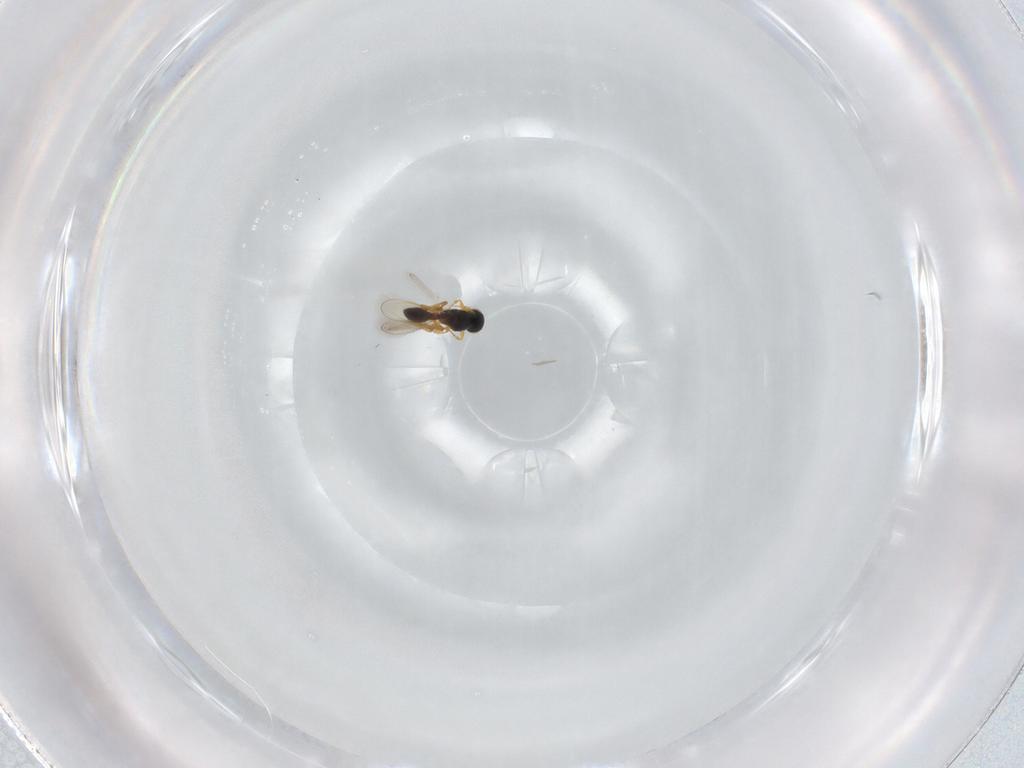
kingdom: Animalia
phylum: Arthropoda
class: Insecta
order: Hymenoptera
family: Platygastridae
